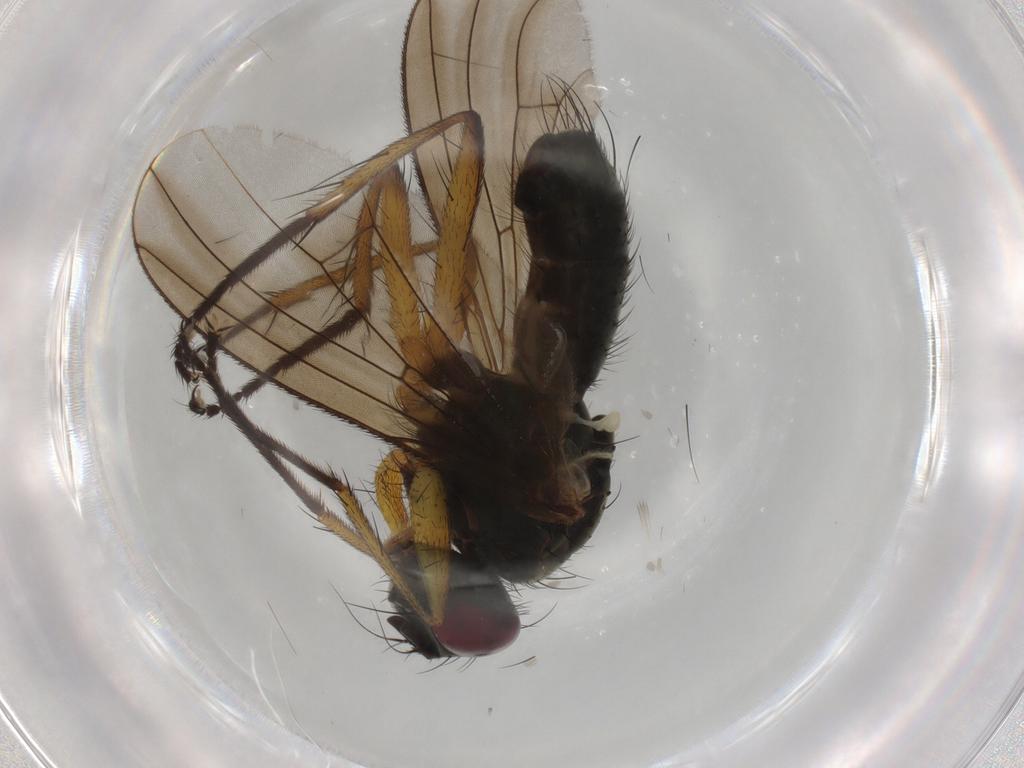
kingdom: Animalia
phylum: Arthropoda
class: Insecta
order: Diptera
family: Muscidae
